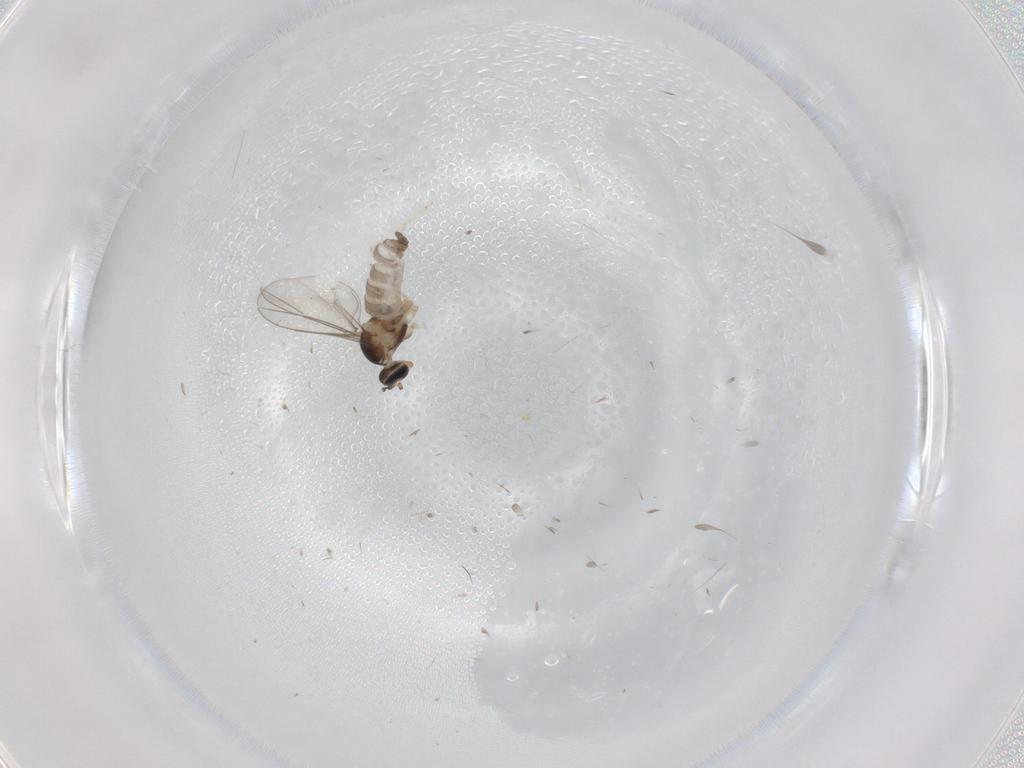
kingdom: Animalia
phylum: Arthropoda
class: Insecta
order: Diptera
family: Cecidomyiidae
